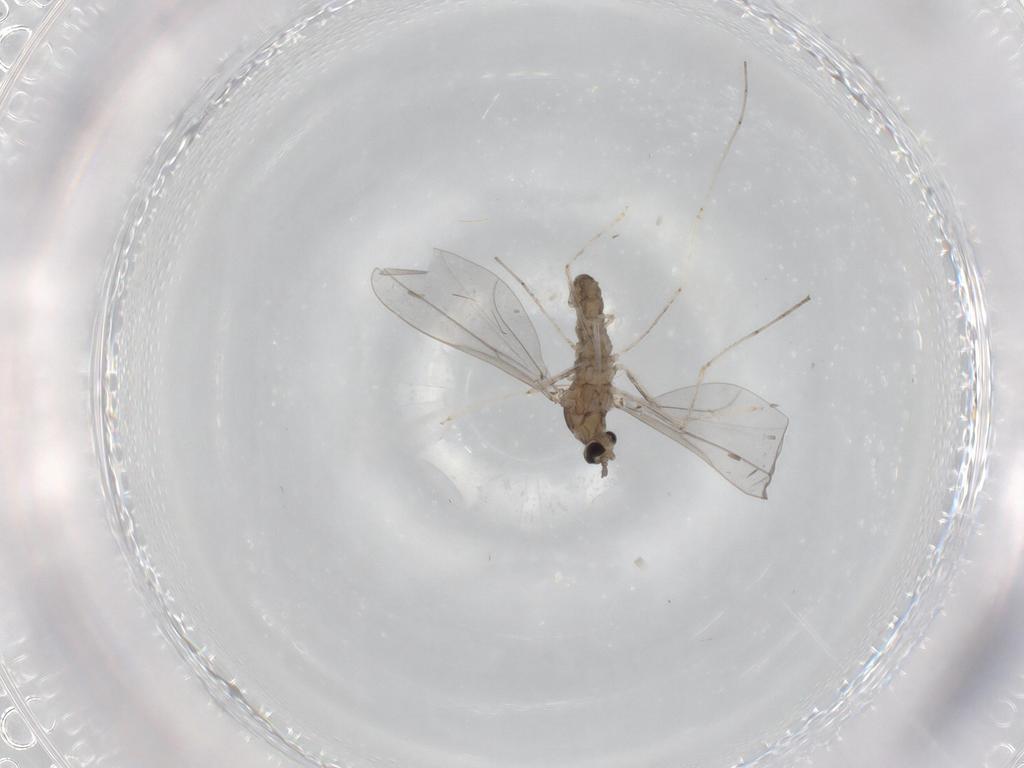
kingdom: Animalia
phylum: Arthropoda
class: Insecta
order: Diptera
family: Cecidomyiidae
